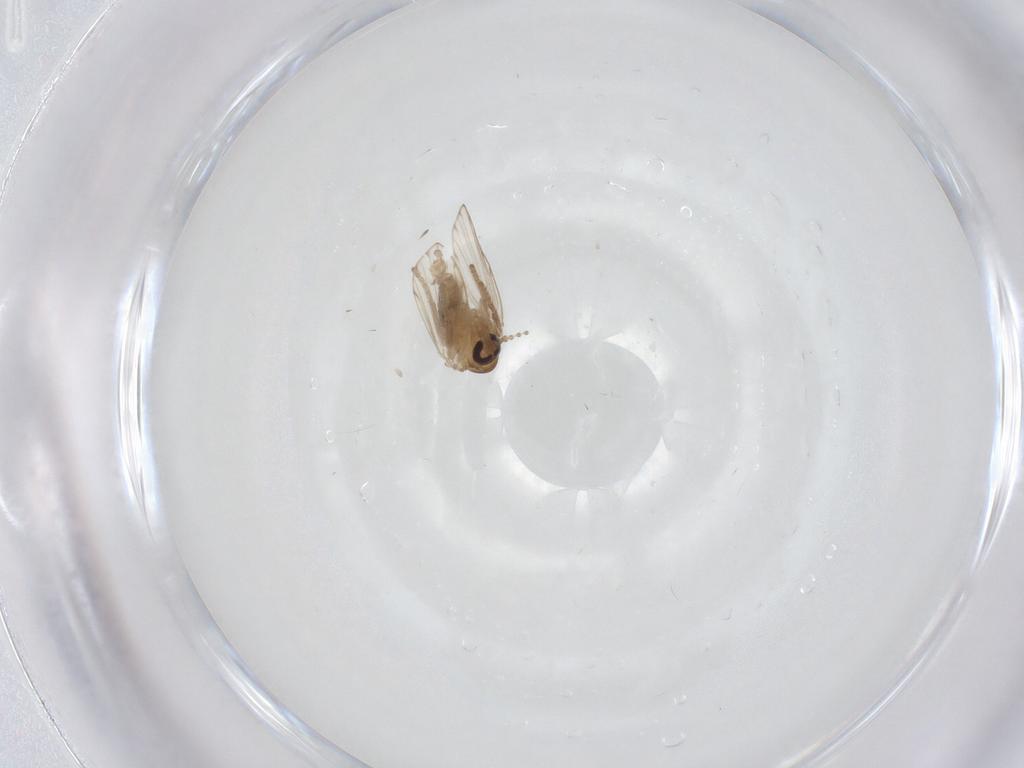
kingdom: Animalia
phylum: Arthropoda
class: Insecta
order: Diptera
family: Psychodidae
